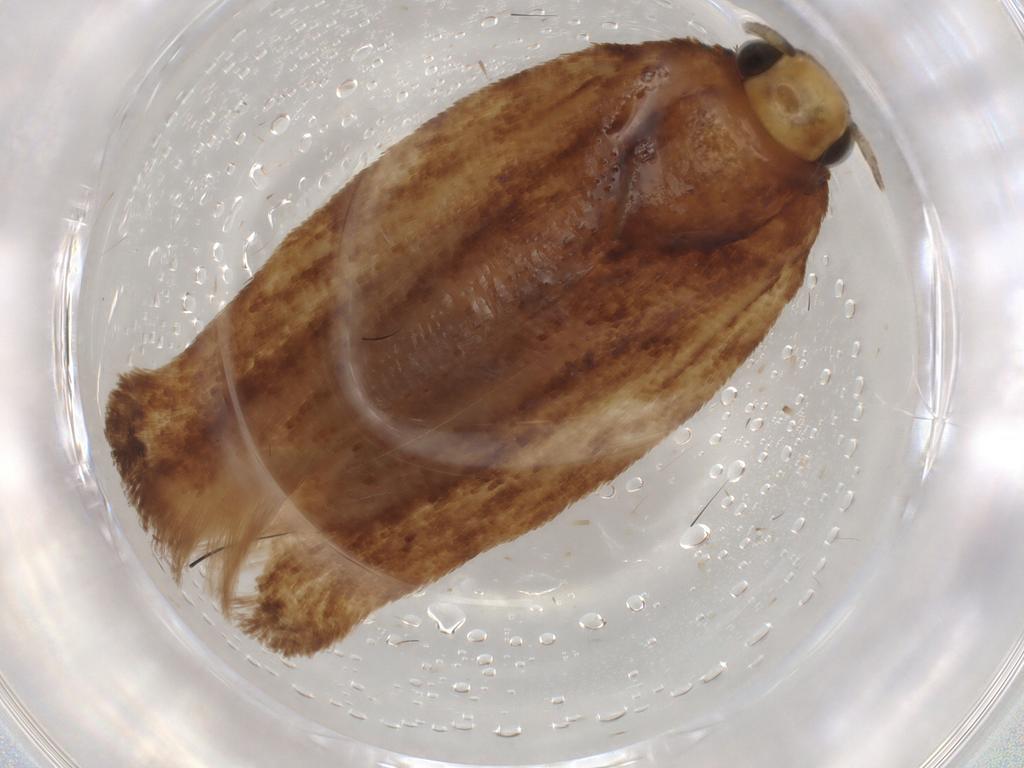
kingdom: Animalia
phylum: Arthropoda
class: Insecta
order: Lepidoptera
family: Gelechiidae
